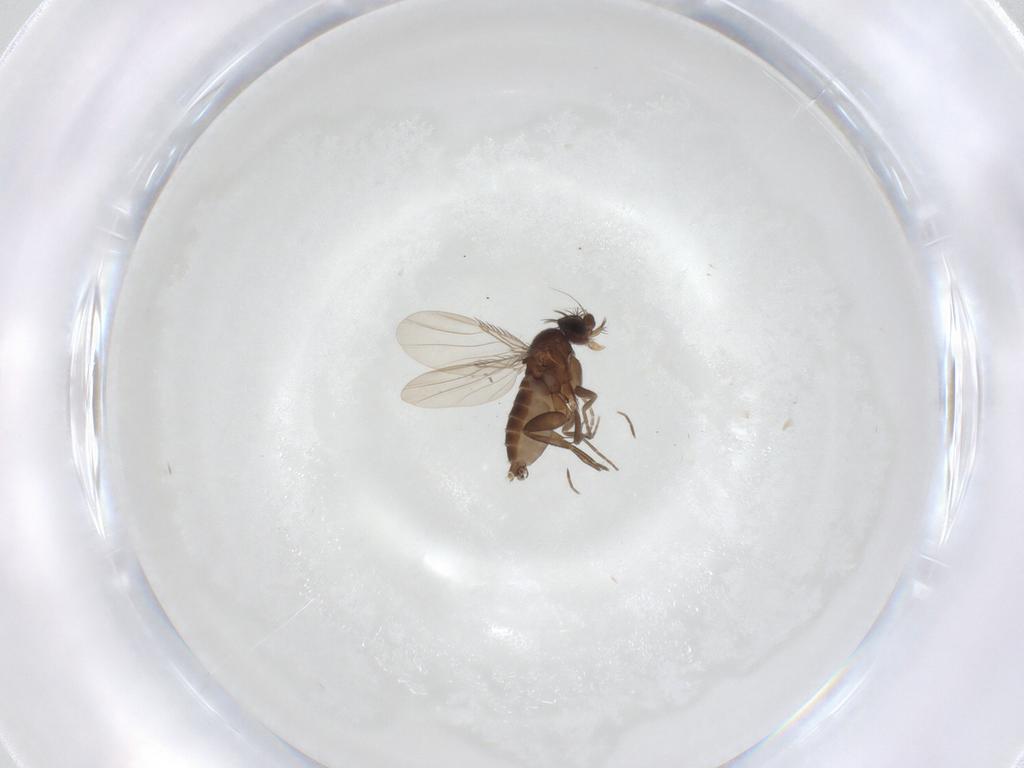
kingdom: Animalia
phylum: Arthropoda
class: Insecta
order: Diptera
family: Phoridae
